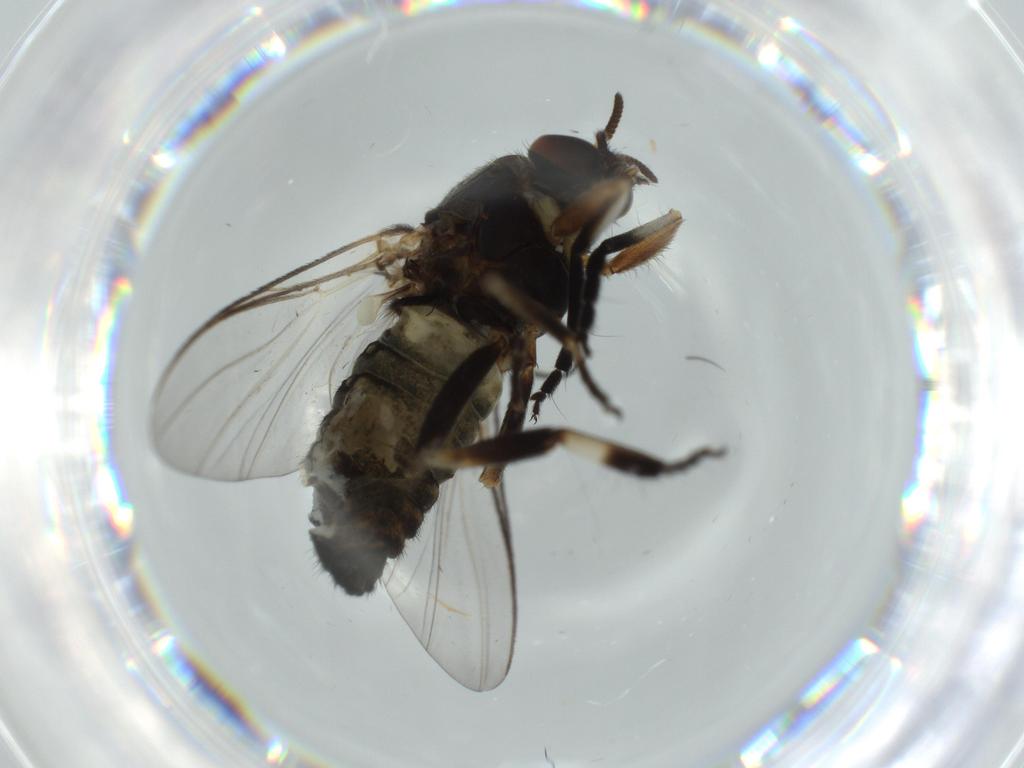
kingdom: Animalia
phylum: Arthropoda
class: Insecta
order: Diptera
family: Phoridae
